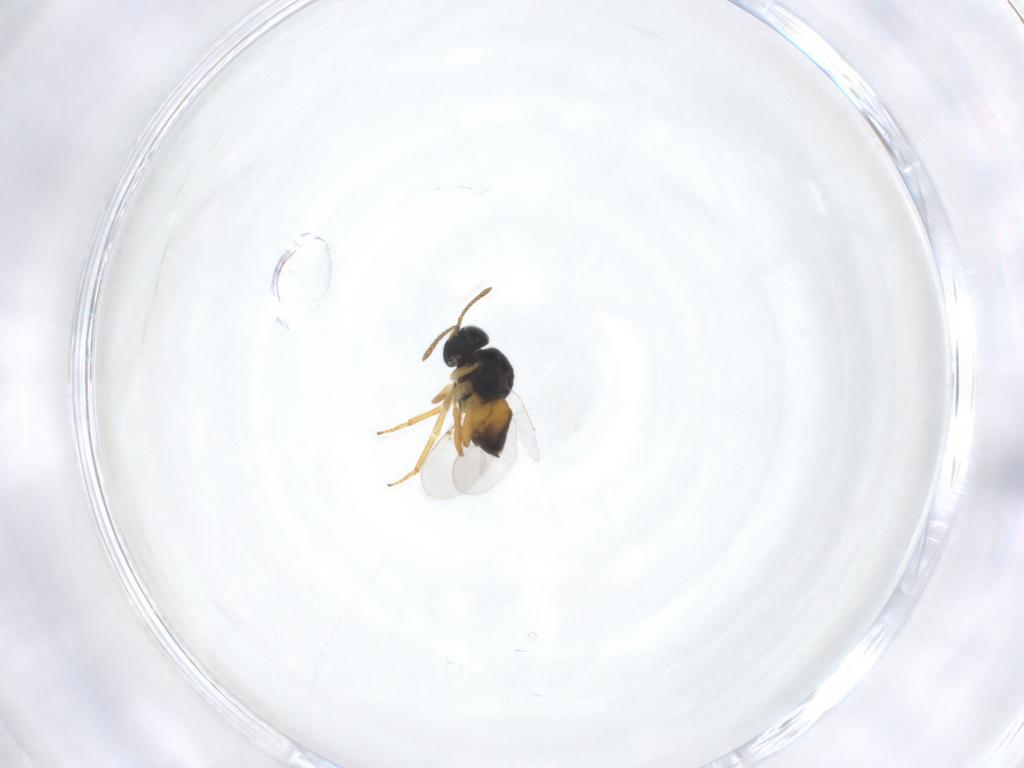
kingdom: Animalia
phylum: Arthropoda
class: Insecta
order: Hymenoptera
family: Encyrtidae
